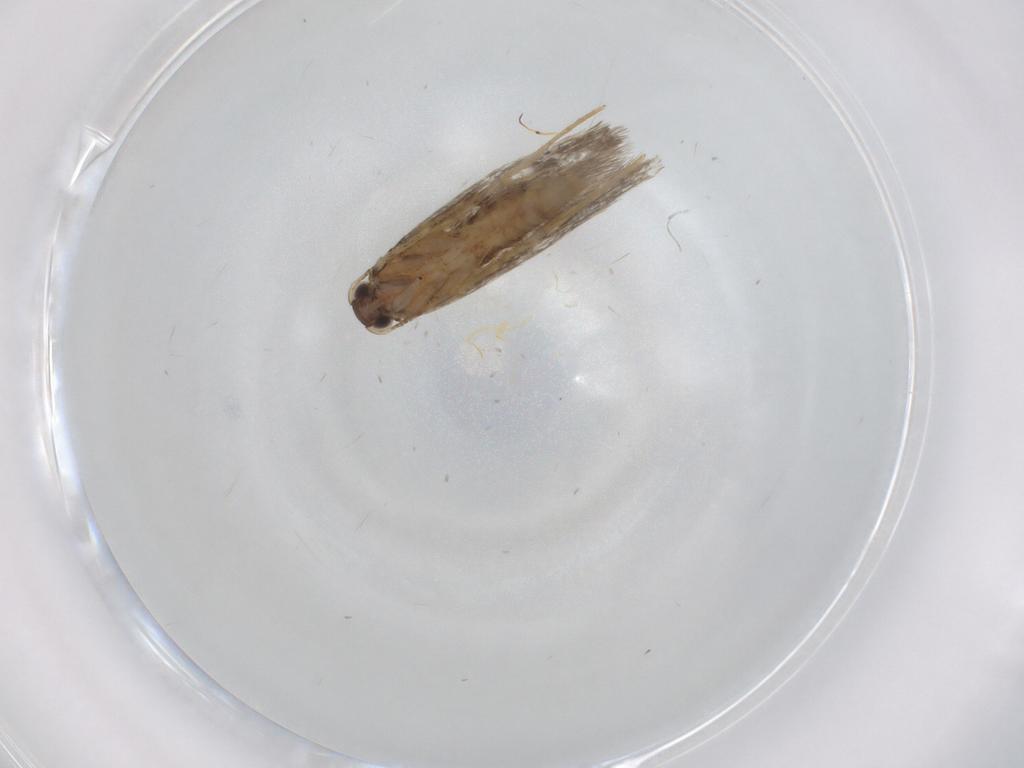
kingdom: Animalia
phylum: Arthropoda
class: Insecta
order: Lepidoptera
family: Tineidae
